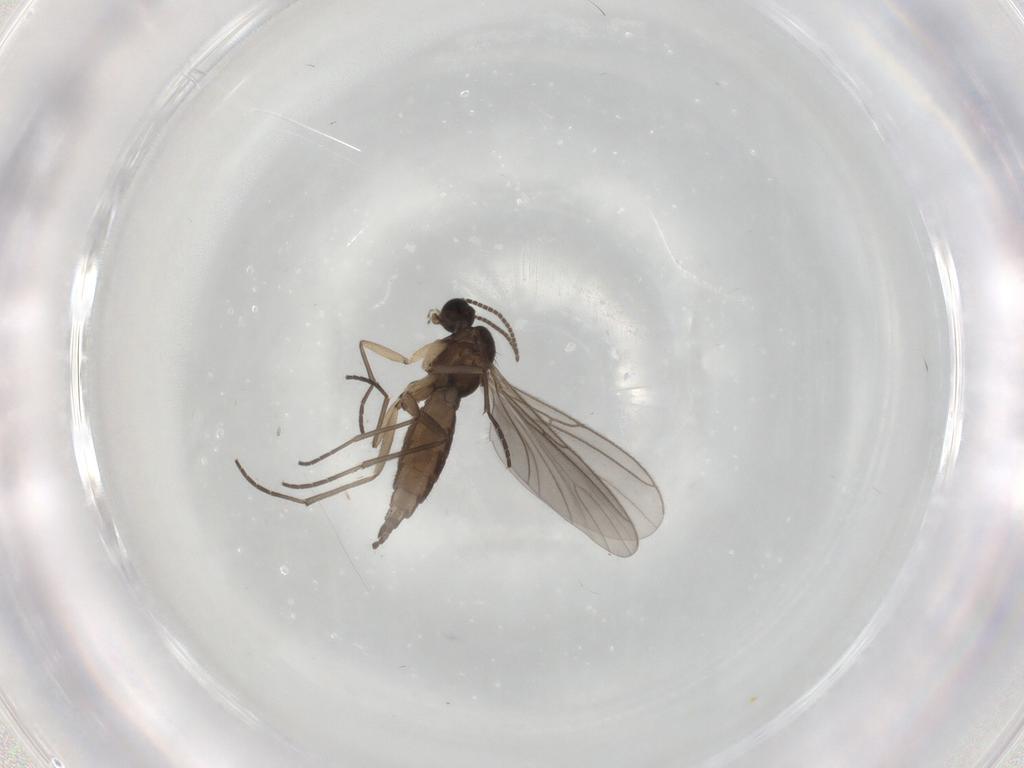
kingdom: Animalia
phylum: Arthropoda
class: Insecta
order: Diptera
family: Sciaridae
